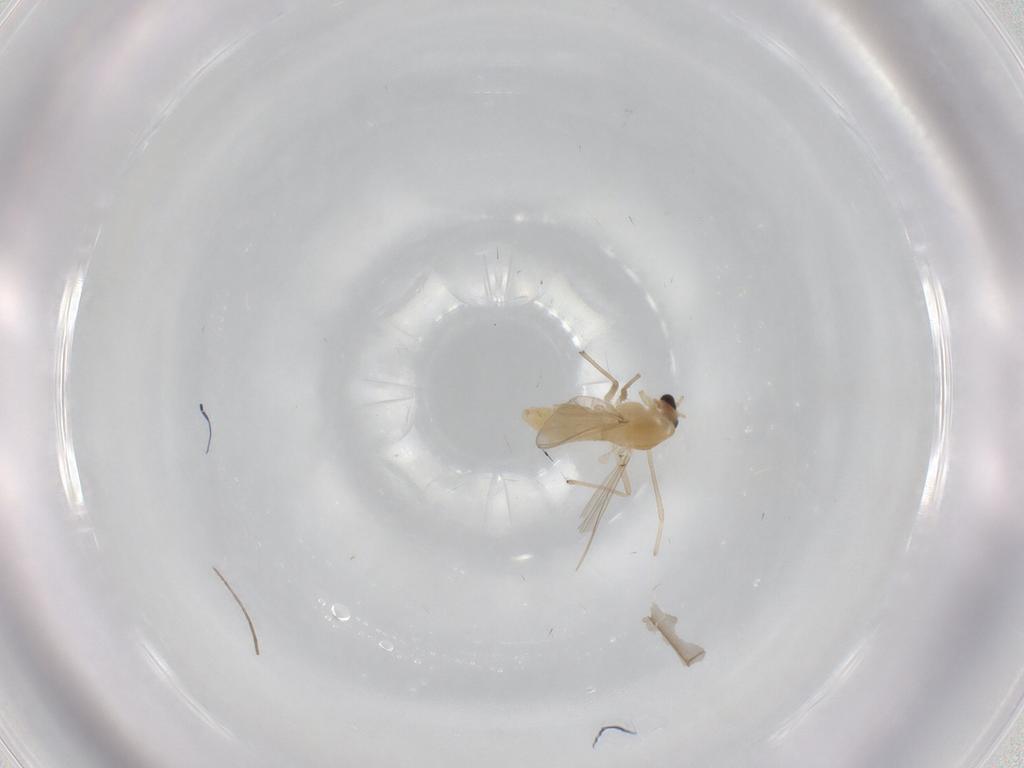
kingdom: Animalia
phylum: Arthropoda
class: Insecta
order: Diptera
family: Chironomidae
